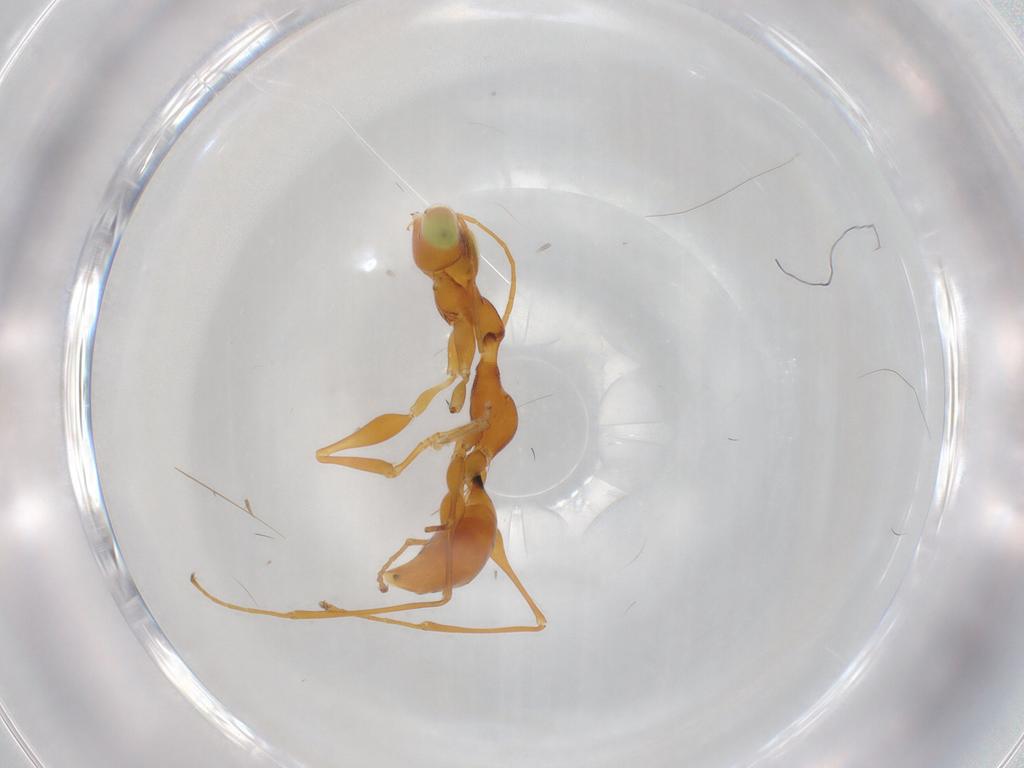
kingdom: Animalia
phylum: Arthropoda
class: Insecta
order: Hymenoptera
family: Dryinidae
